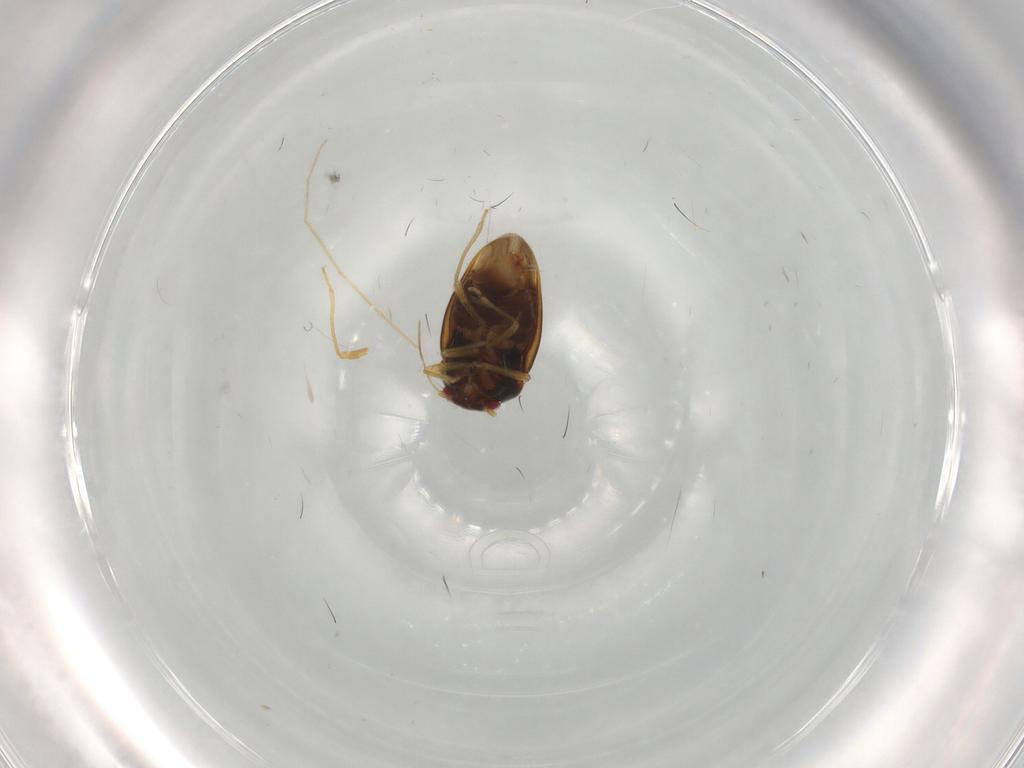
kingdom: Animalia
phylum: Arthropoda
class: Insecta
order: Hemiptera
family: Schizopteridae
